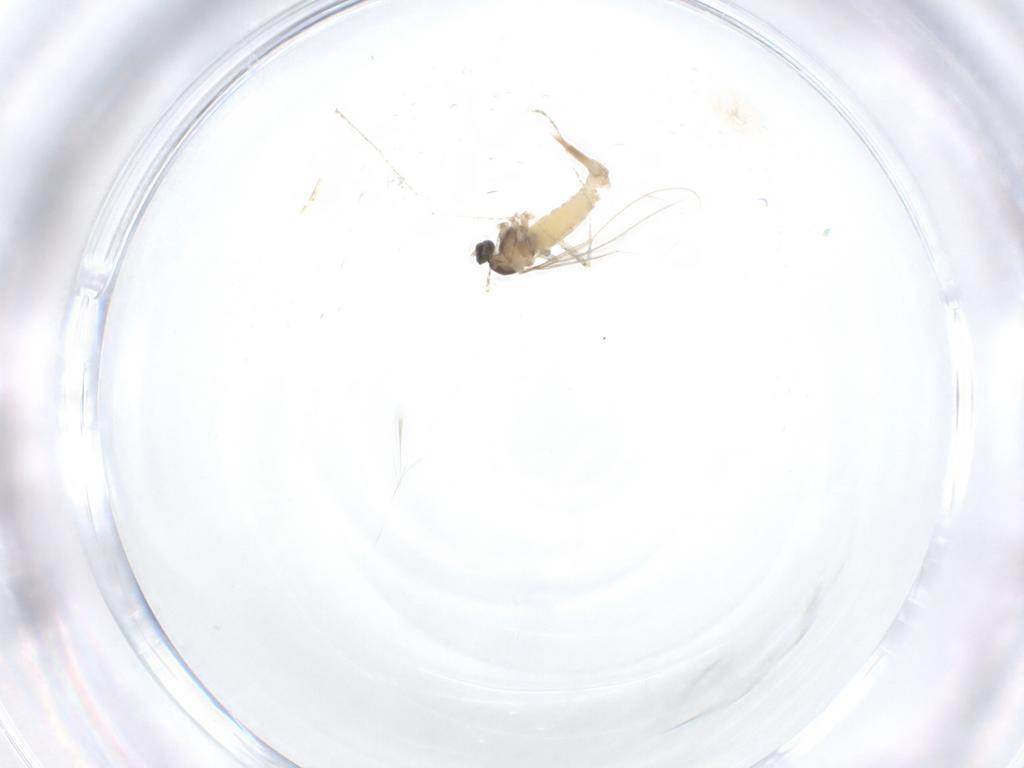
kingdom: Animalia
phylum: Arthropoda
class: Insecta
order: Diptera
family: Cecidomyiidae
